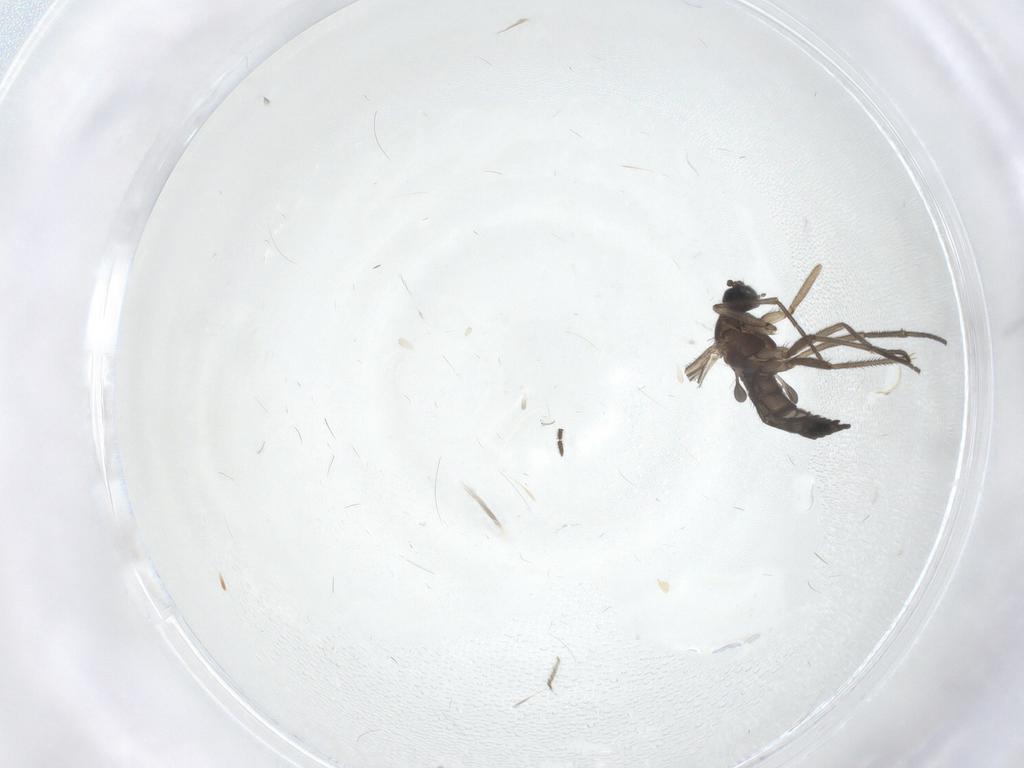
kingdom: Animalia
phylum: Arthropoda
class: Insecta
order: Diptera
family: Sciaridae
